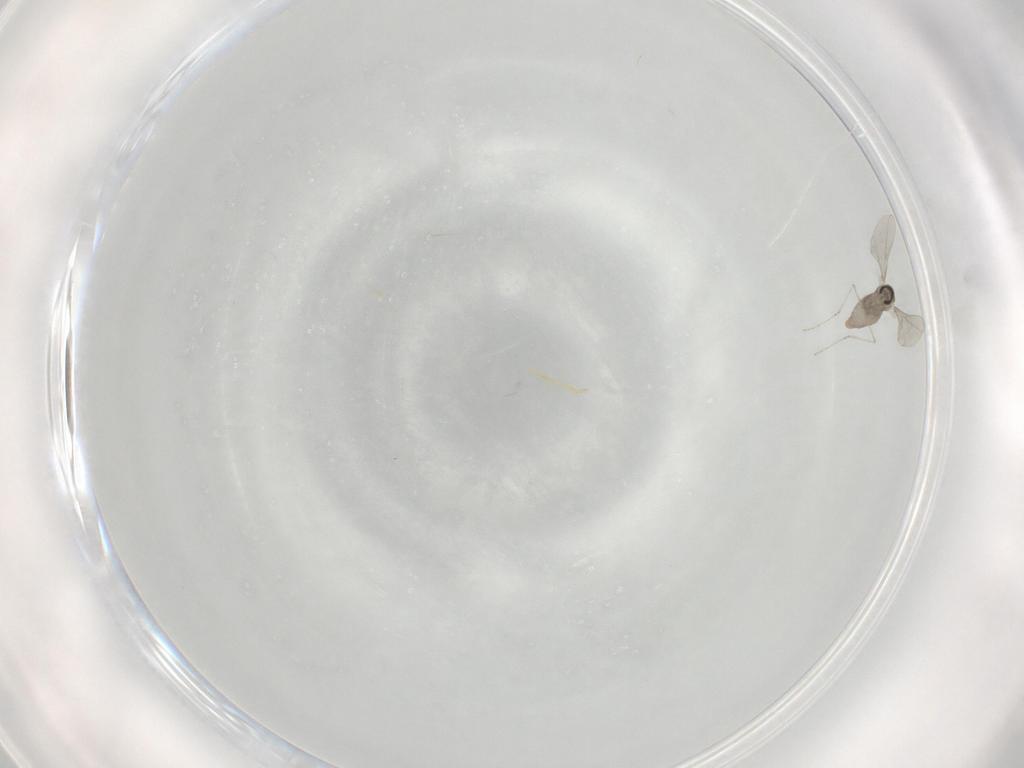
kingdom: Animalia
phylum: Arthropoda
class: Insecta
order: Diptera
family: Cecidomyiidae
